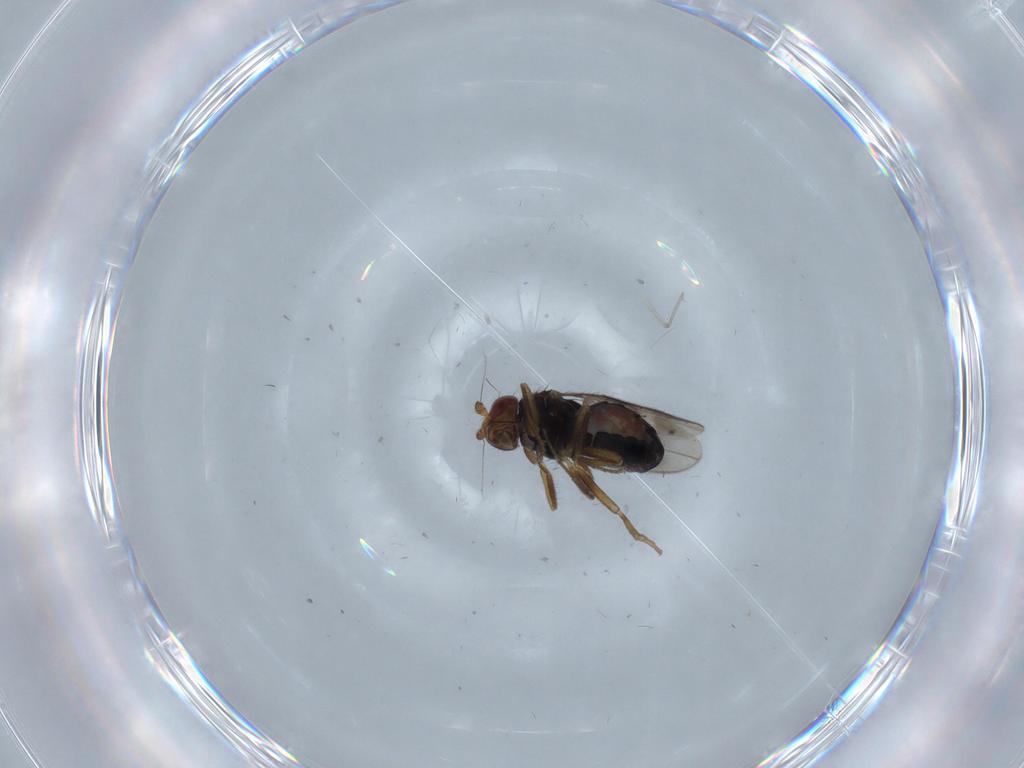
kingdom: Animalia
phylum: Arthropoda
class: Insecta
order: Diptera
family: Sphaeroceridae
